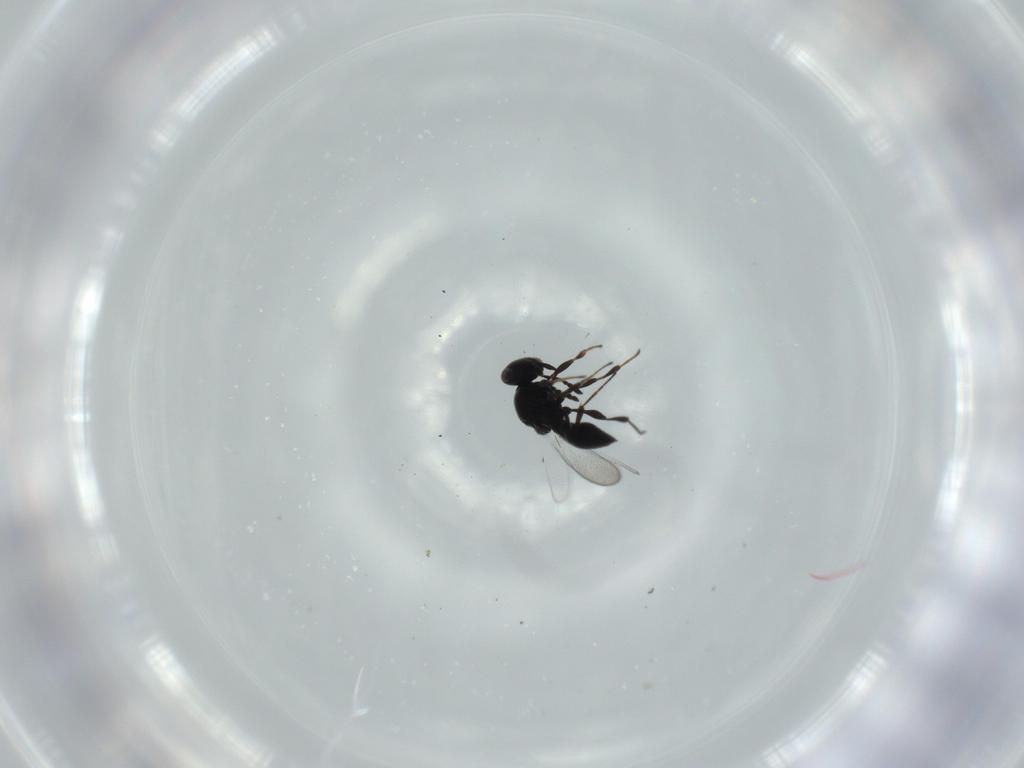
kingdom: Animalia
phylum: Arthropoda
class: Insecta
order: Hymenoptera
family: Platygastridae
